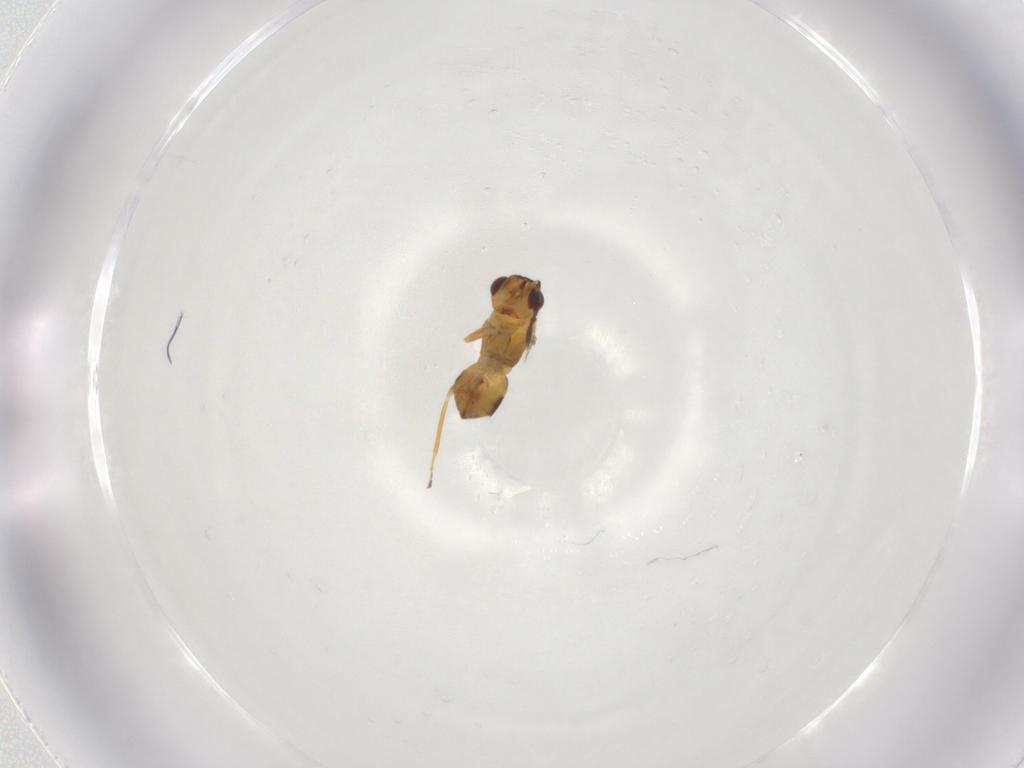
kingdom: Animalia
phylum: Arthropoda
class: Insecta
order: Hymenoptera
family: Eulophidae
